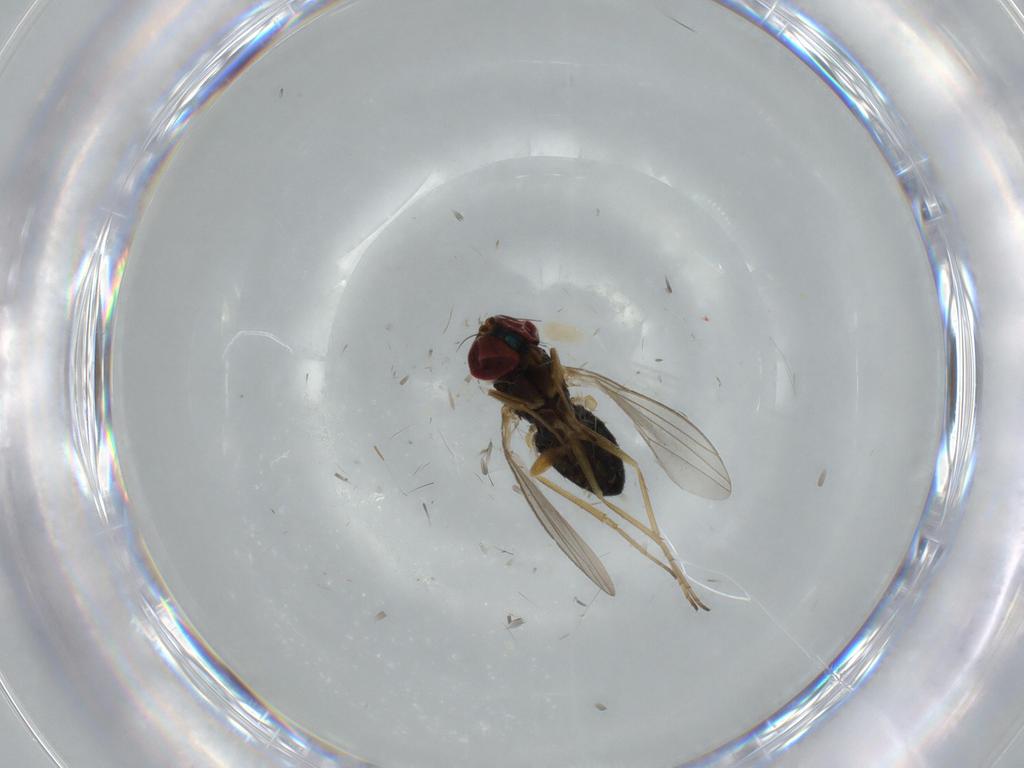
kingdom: Animalia
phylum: Arthropoda
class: Insecta
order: Diptera
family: Dolichopodidae
